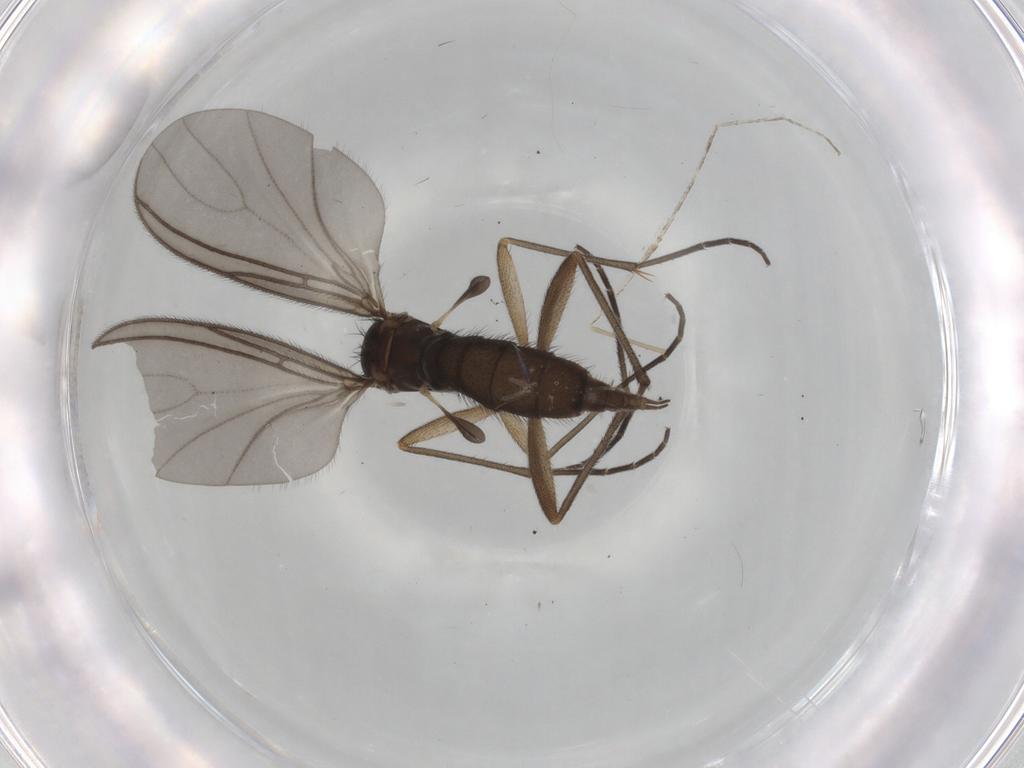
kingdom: Animalia
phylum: Arthropoda
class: Insecta
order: Diptera
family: Sciaridae
